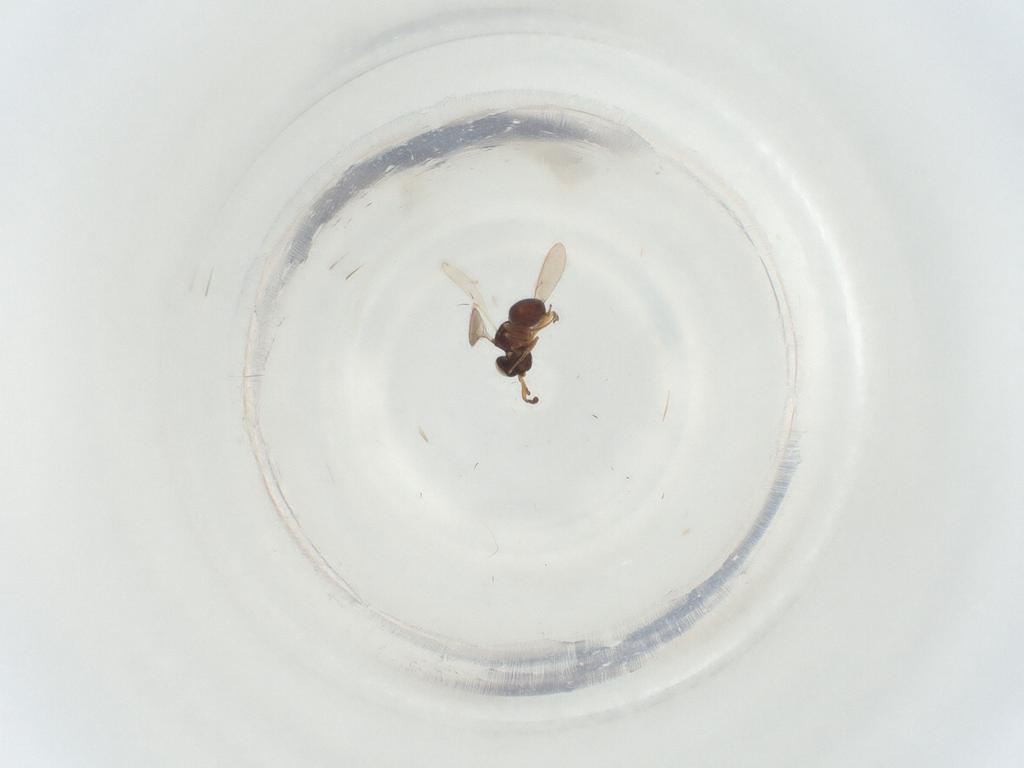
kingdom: Animalia
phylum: Arthropoda
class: Insecta
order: Hymenoptera
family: Scelionidae
